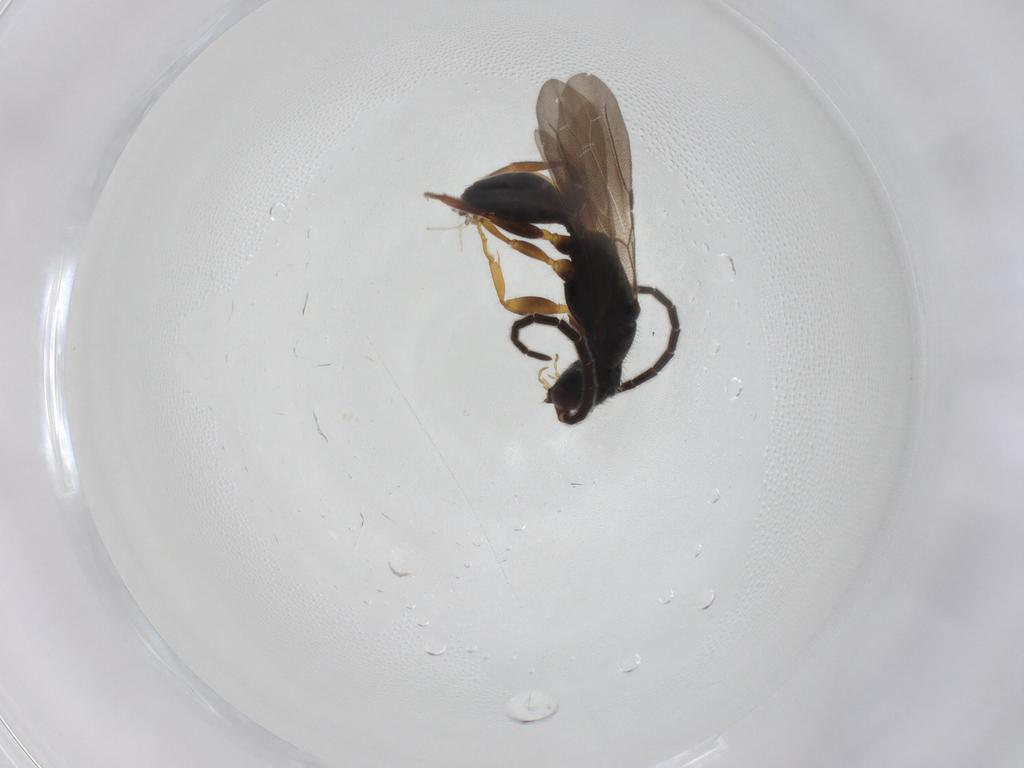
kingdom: Animalia
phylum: Arthropoda
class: Insecta
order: Hymenoptera
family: Bethylidae
